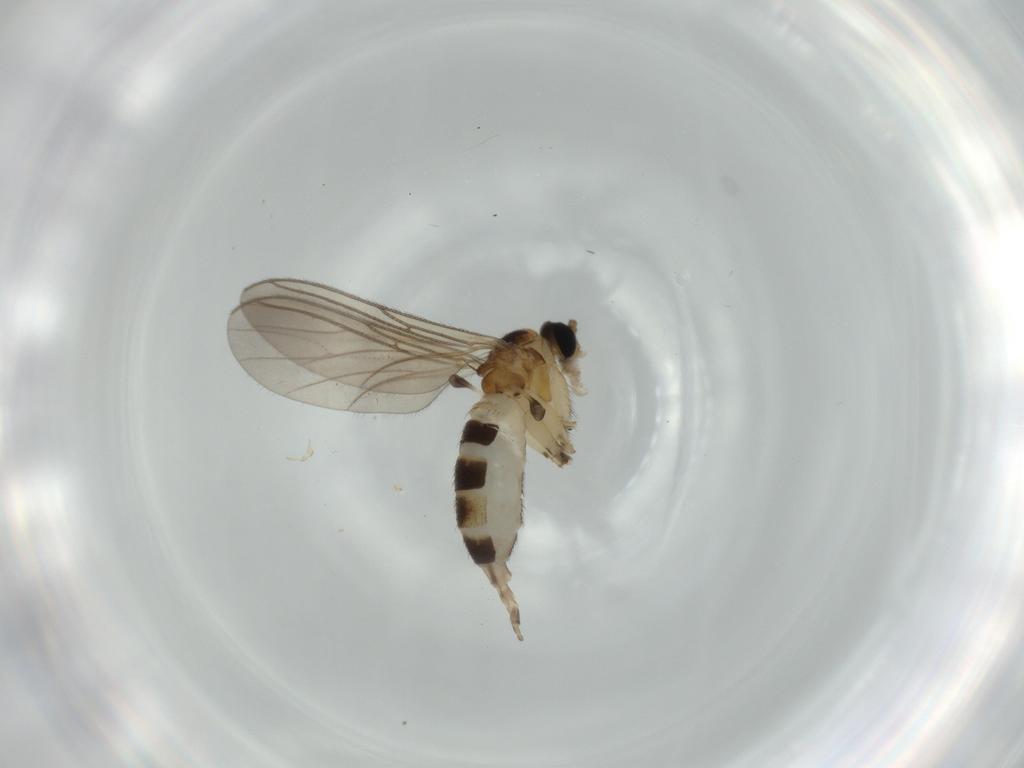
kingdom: Animalia
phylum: Arthropoda
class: Insecta
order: Diptera
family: Sciaridae
